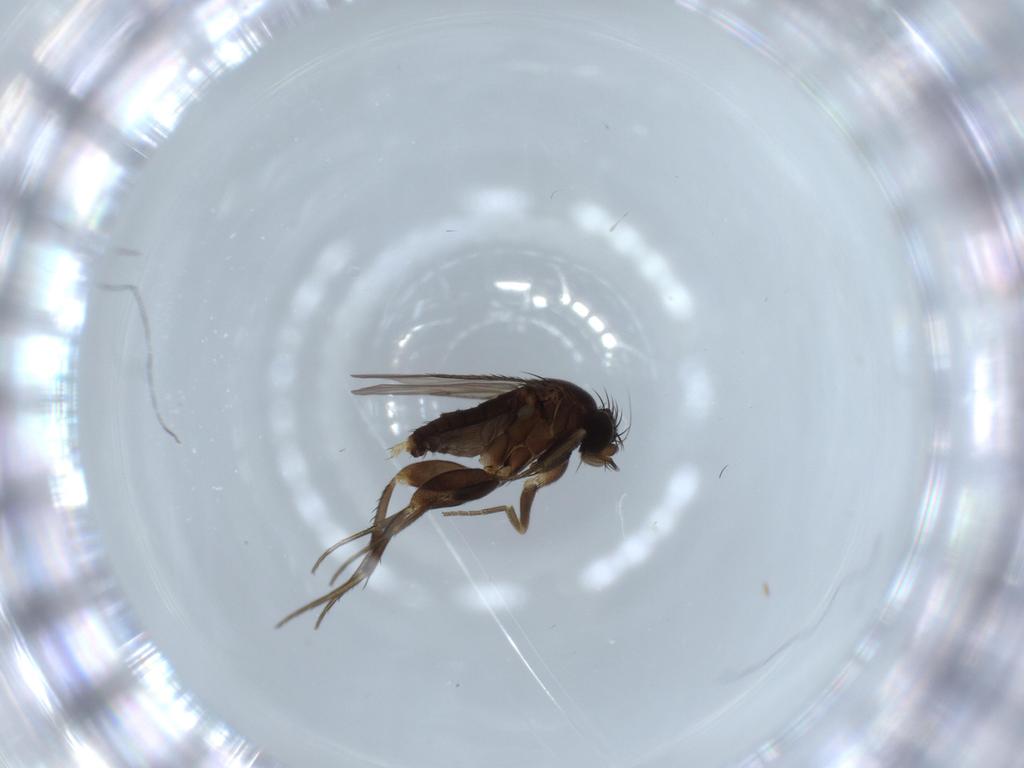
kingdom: Animalia
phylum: Arthropoda
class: Insecta
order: Diptera
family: Phoridae
